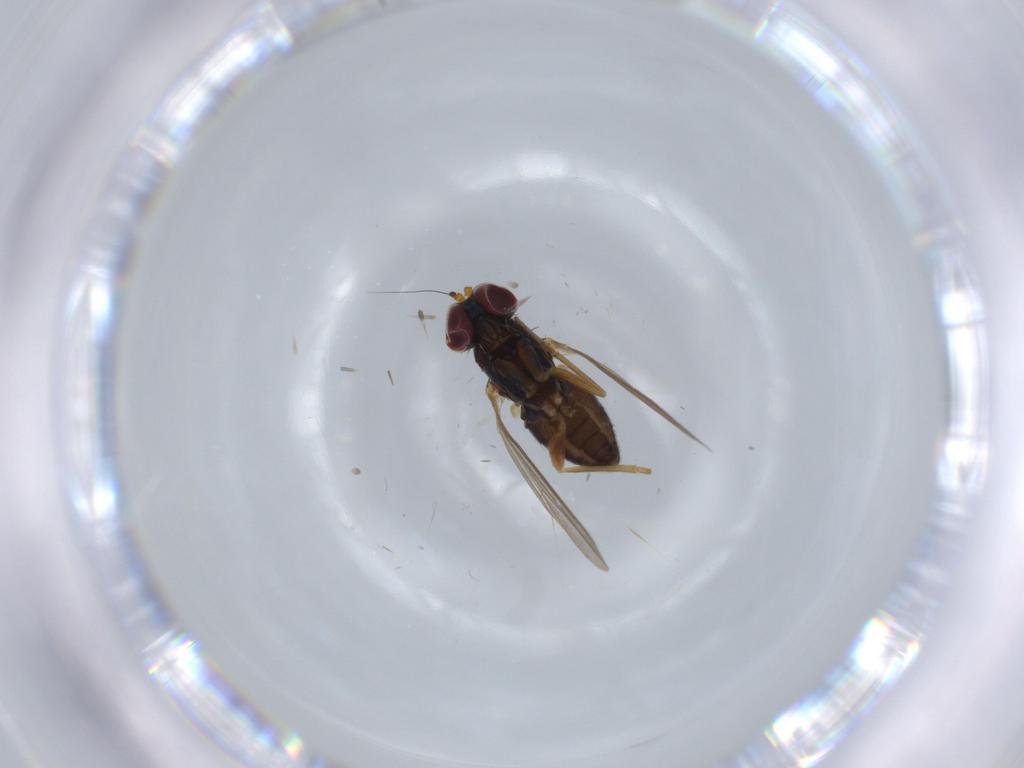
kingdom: Animalia
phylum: Arthropoda
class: Insecta
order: Diptera
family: Dolichopodidae
